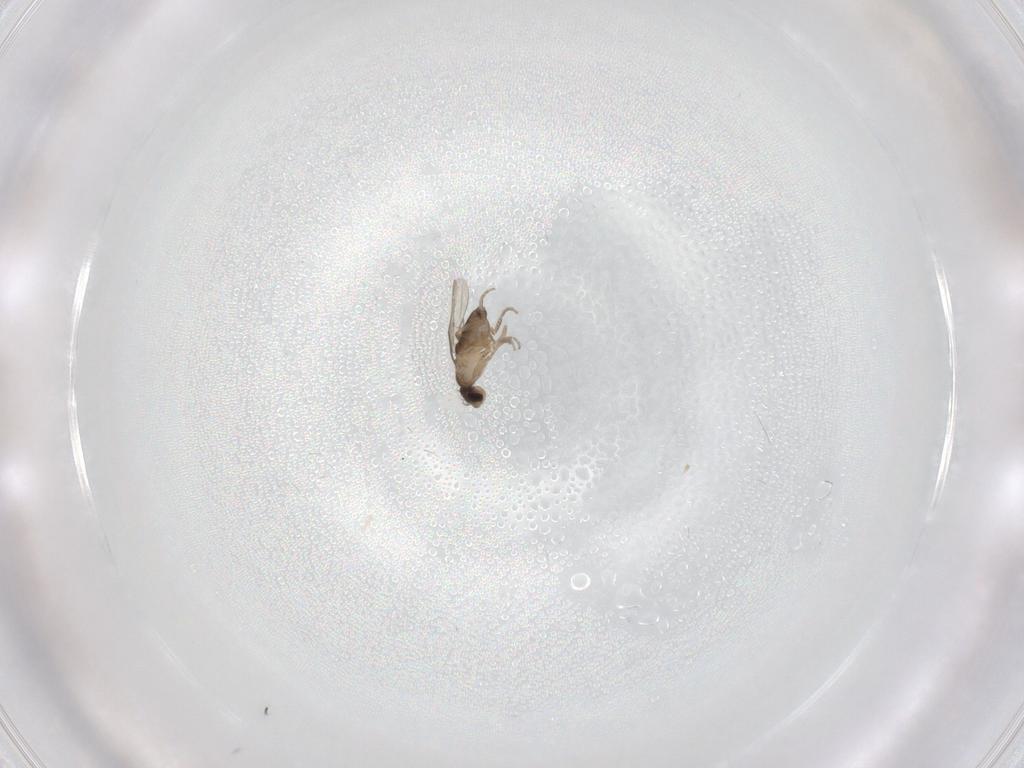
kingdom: Animalia
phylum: Arthropoda
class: Insecta
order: Diptera
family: Phoridae
